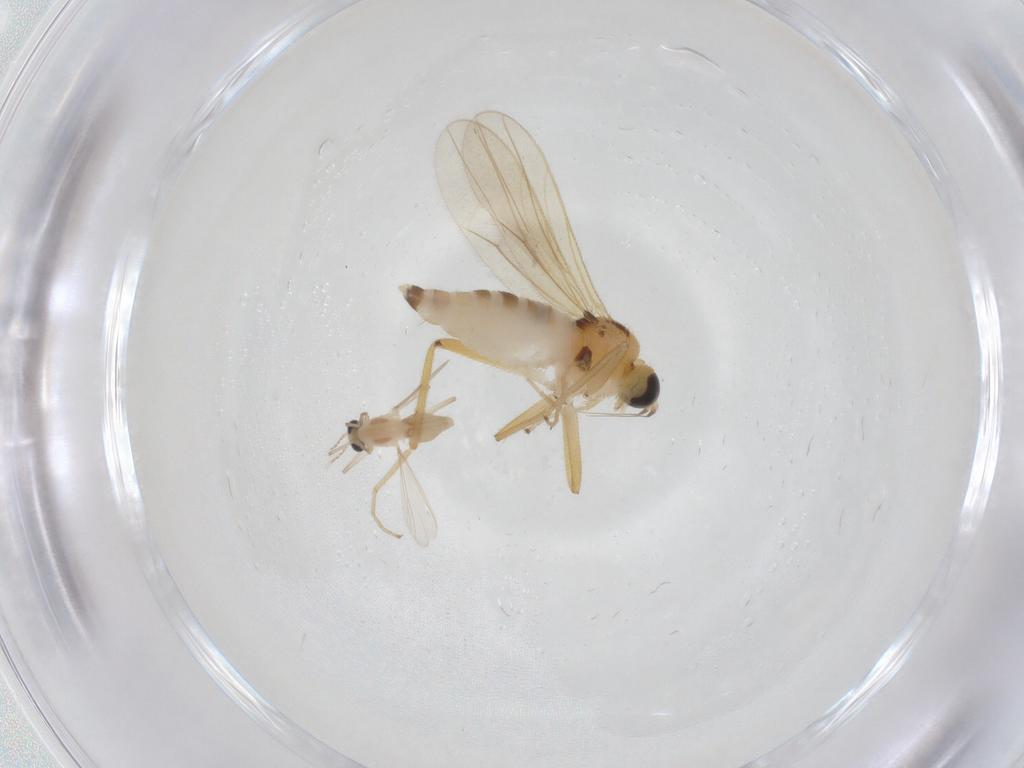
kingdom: Animalia
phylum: Arthropoda
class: Insecta
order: Diptera
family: Hybotidae
